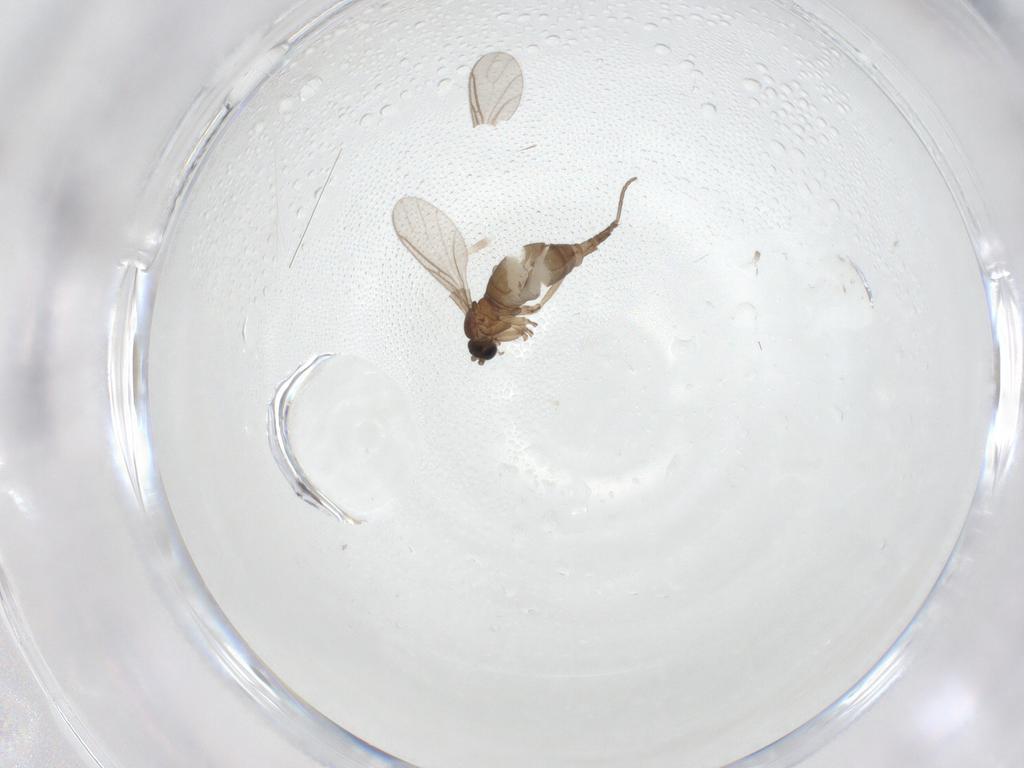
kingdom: Animalia
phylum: Arthropoda
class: Insecta
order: Diptera
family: Sciaridae
